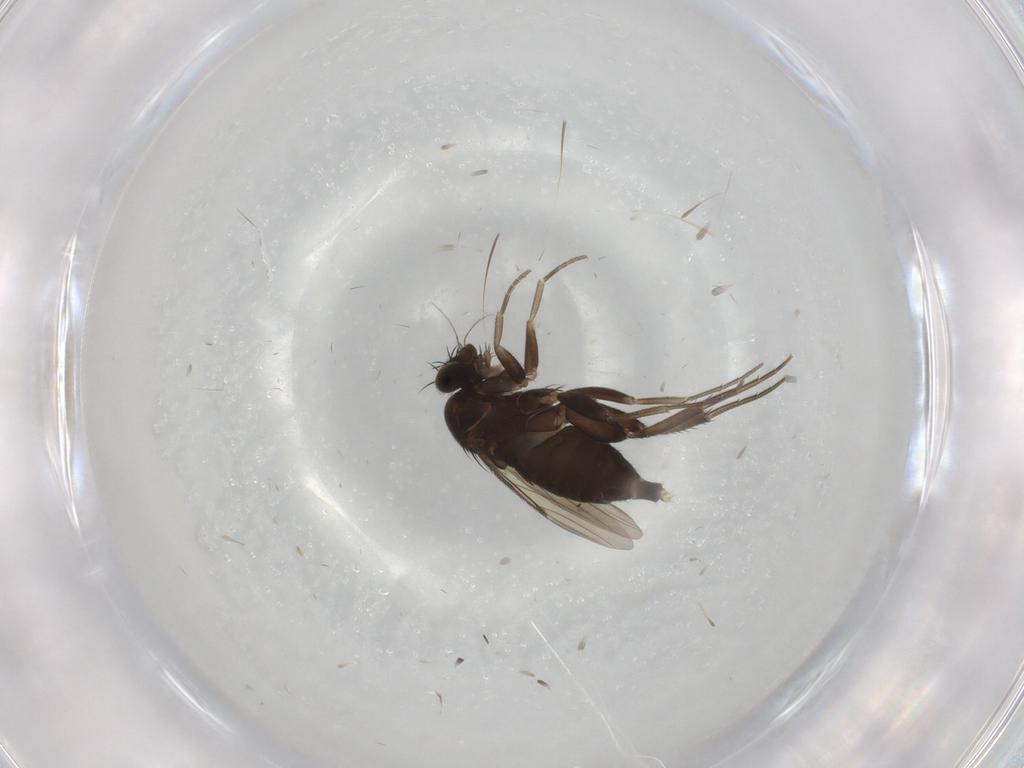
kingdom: Animalia
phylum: Arthropoda
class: Insecta
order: Diptera
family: Phoridae
